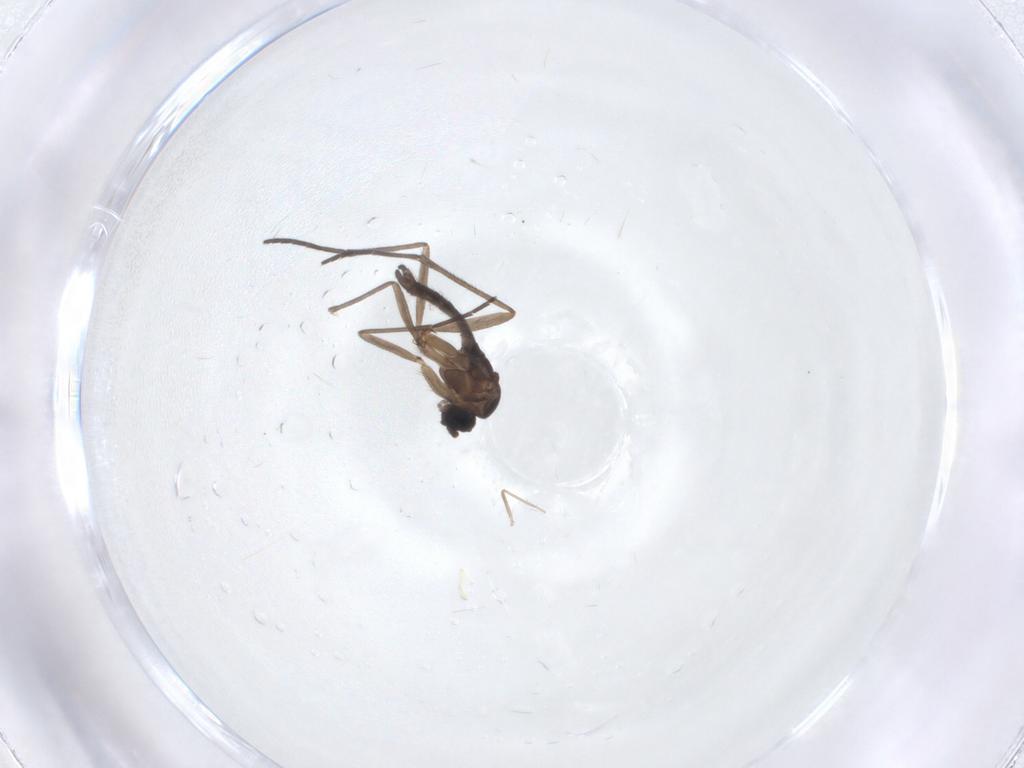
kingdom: Animalia
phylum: Arthropoda
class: Insecta
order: Diptera
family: Sciaridae
